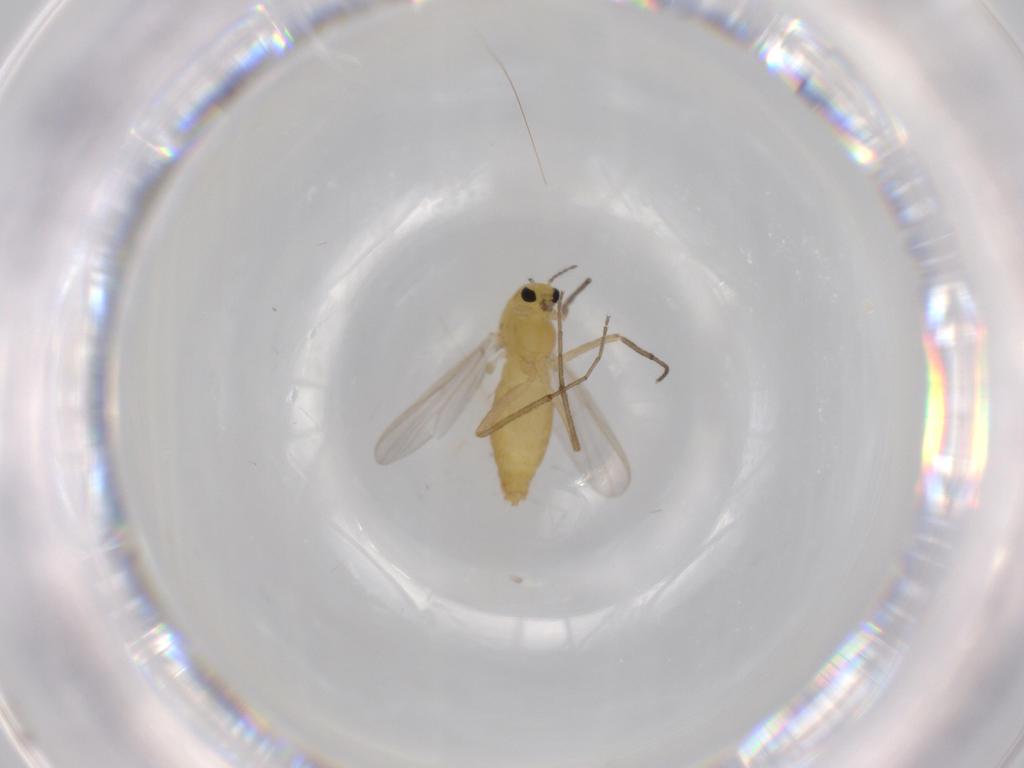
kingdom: Animalia
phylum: Arthropoda
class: Insecta
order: Diptera
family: Chironomidae
